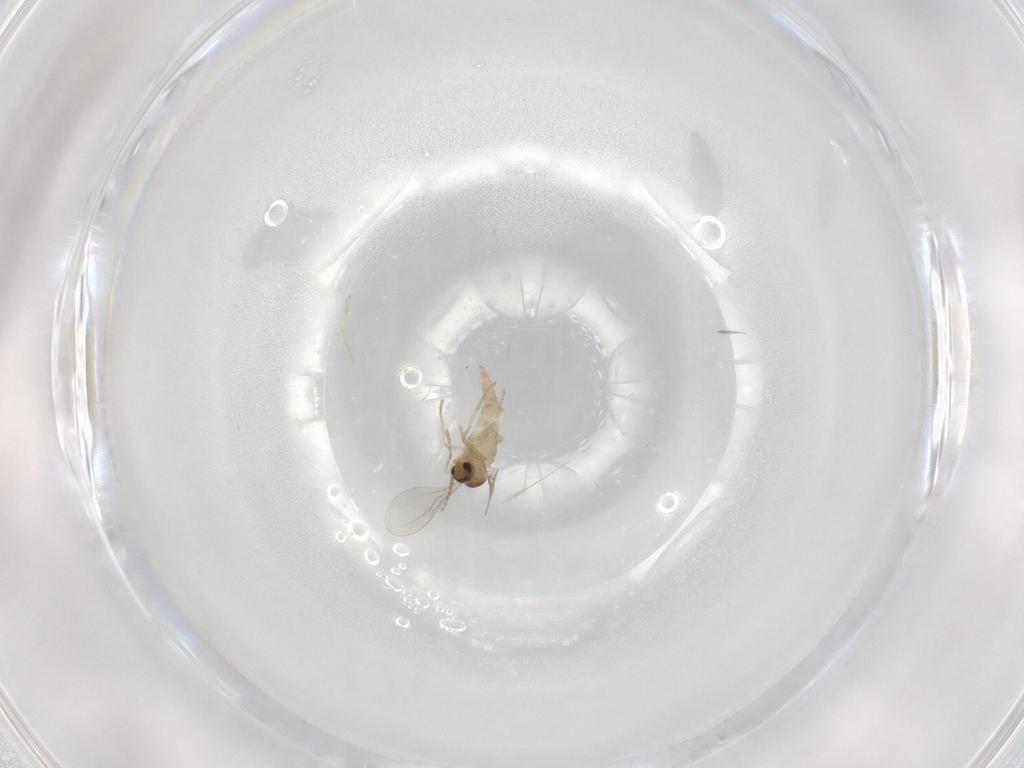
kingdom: Animalia
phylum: Arthropoda
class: Insecta
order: Diptera
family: Cecidomyiidae
